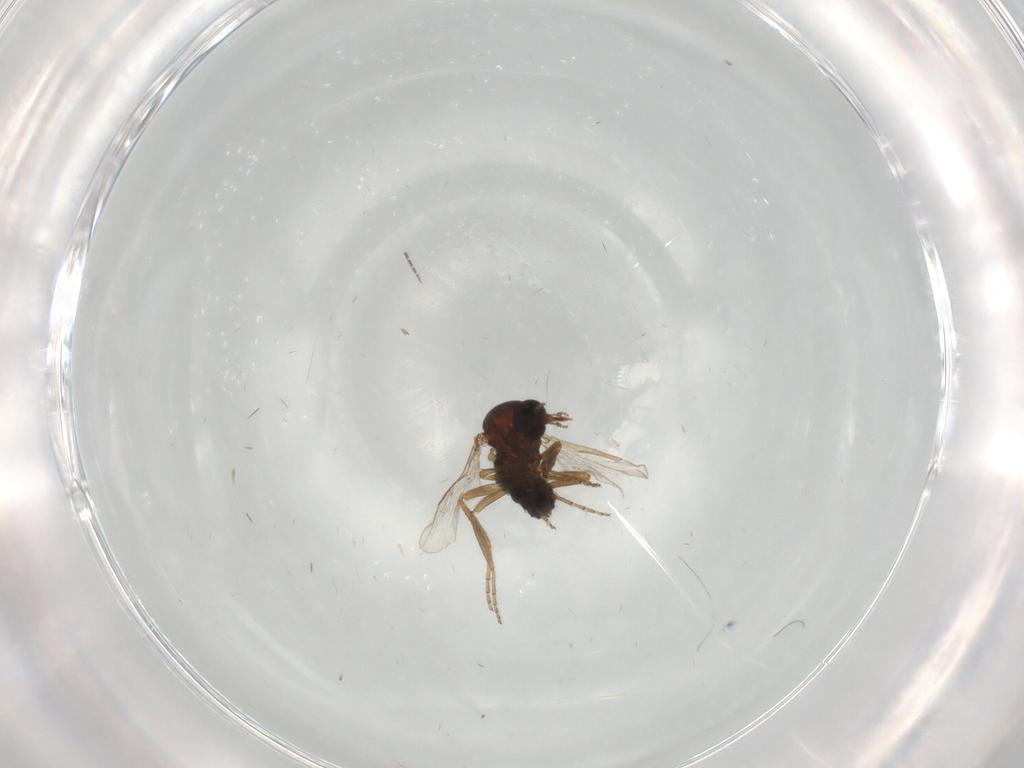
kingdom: Animalia
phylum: Arthropoda
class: Insecta
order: Diptera
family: Ceratopogonidae
